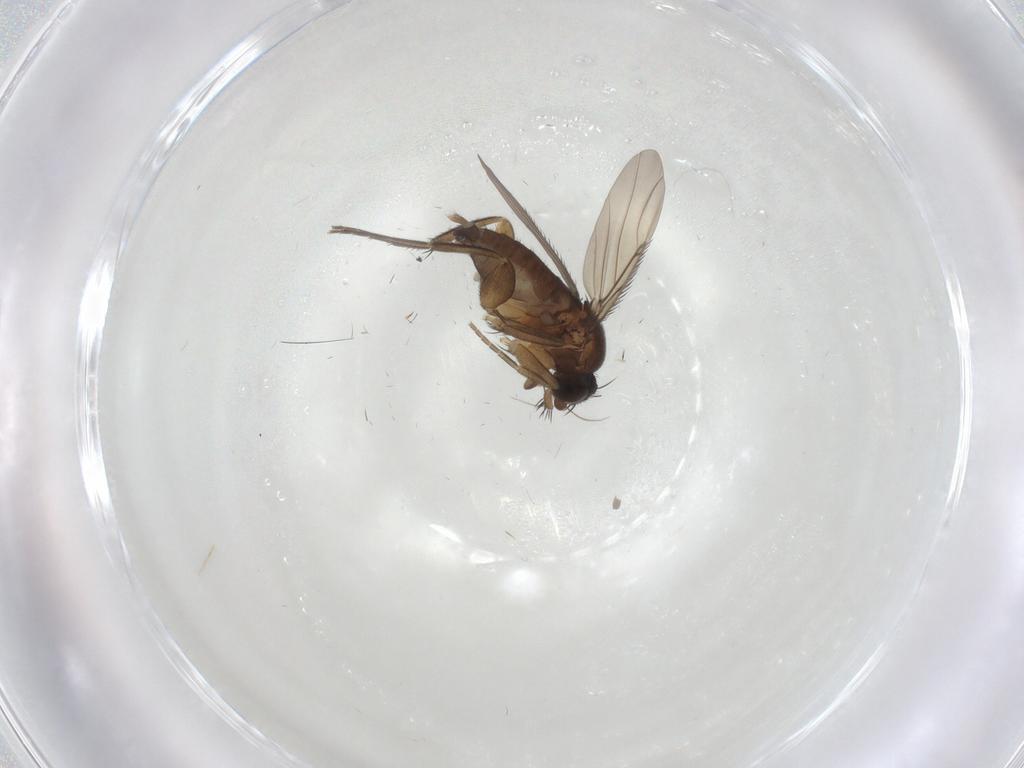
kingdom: Animalia
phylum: Arthropoda
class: Insecta
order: Diptera
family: Phoridae
